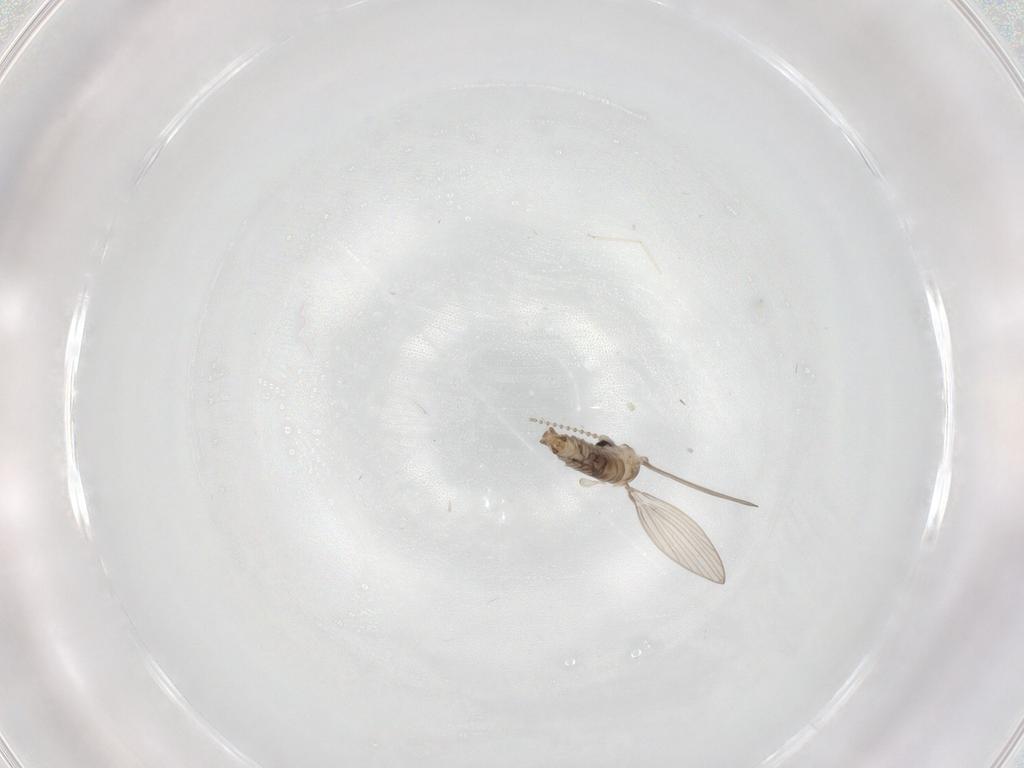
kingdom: Animalia
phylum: Arthropoda
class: Insecta
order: Diptera
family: Psychodidae
